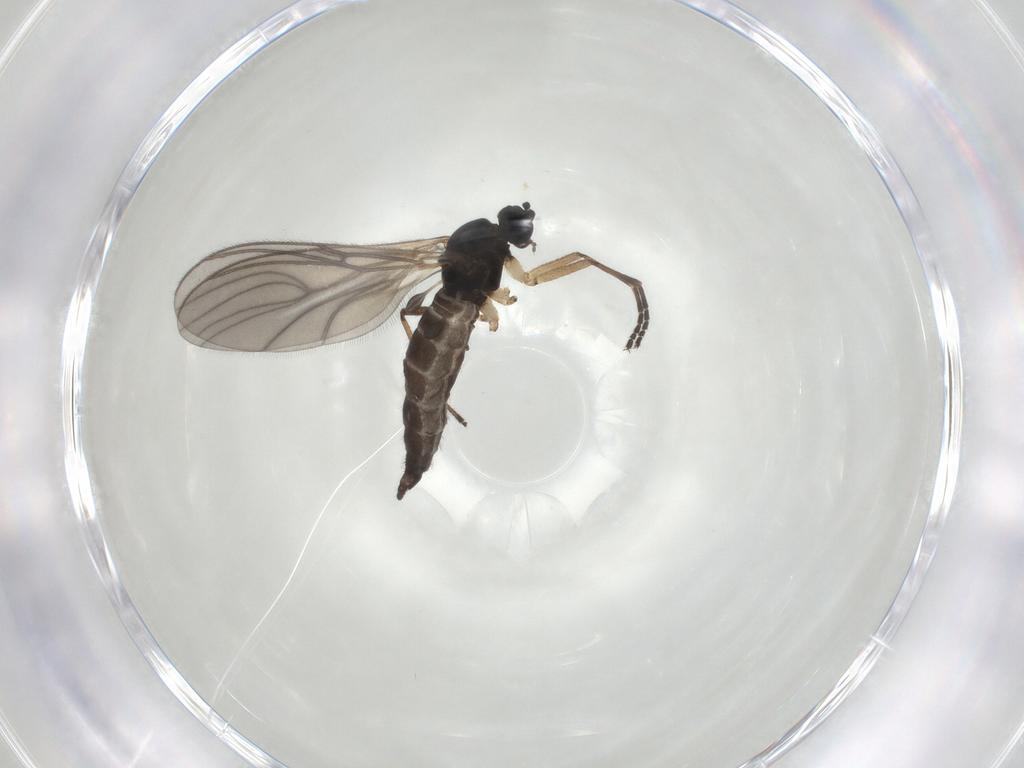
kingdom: Animalia
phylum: Arthropoda
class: Insecta
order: Diptera
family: Sciaridae
